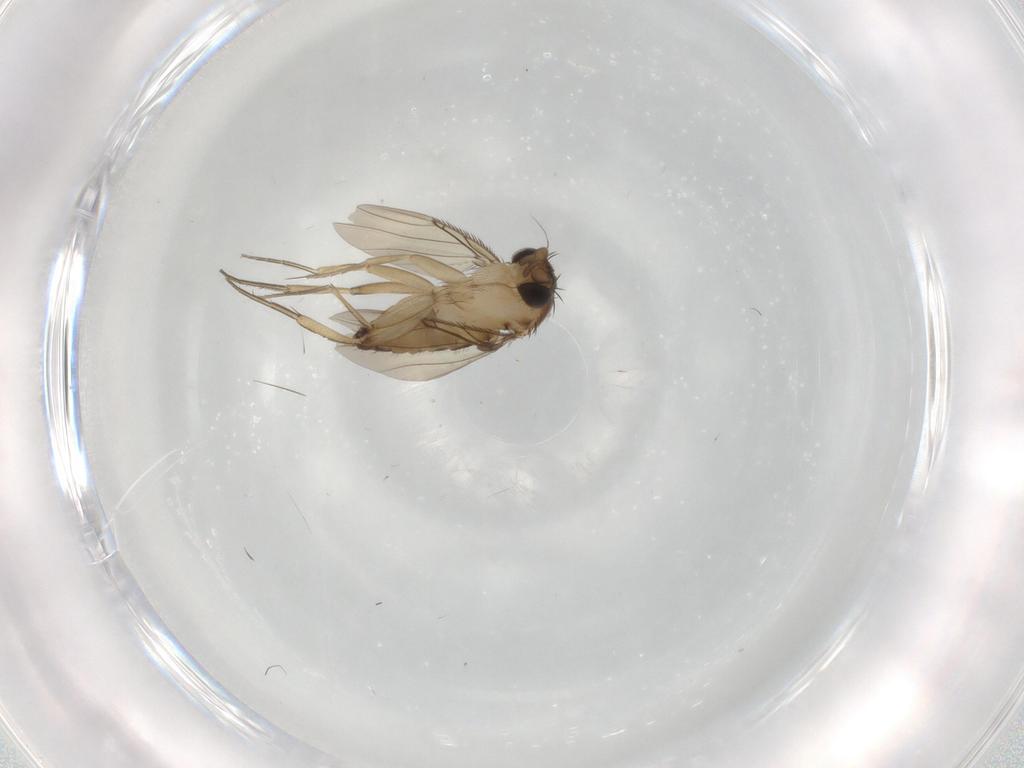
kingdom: Animalia
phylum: Arthropoda
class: Insecta
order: Diptera
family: Phoridae
